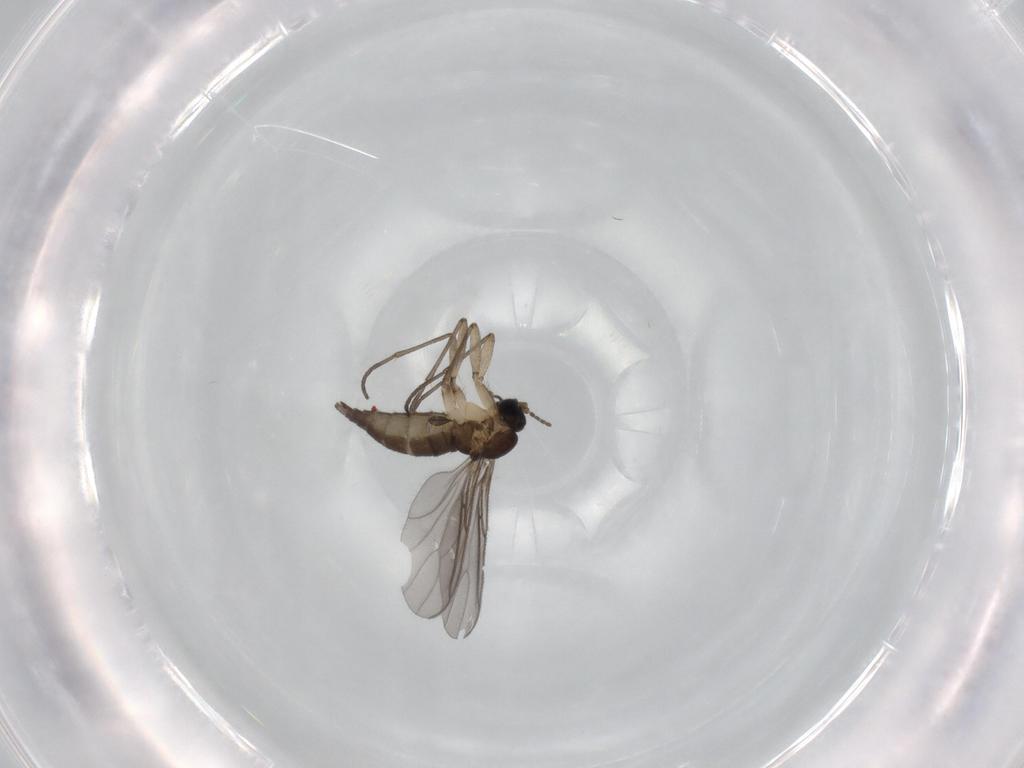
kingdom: Animalia
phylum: Arthropoda
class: Insecta
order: Diptera
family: Sciaridae
